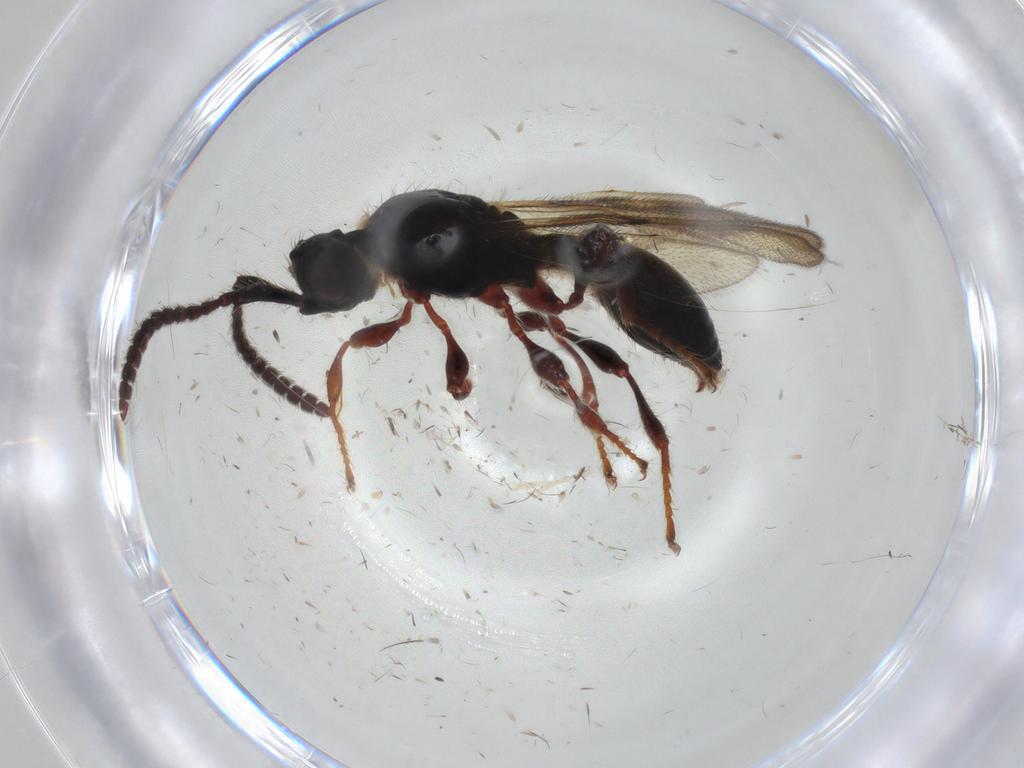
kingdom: Animalia
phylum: Arthropoda
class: Insecta
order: Hymenoptera
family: Diapriidae
